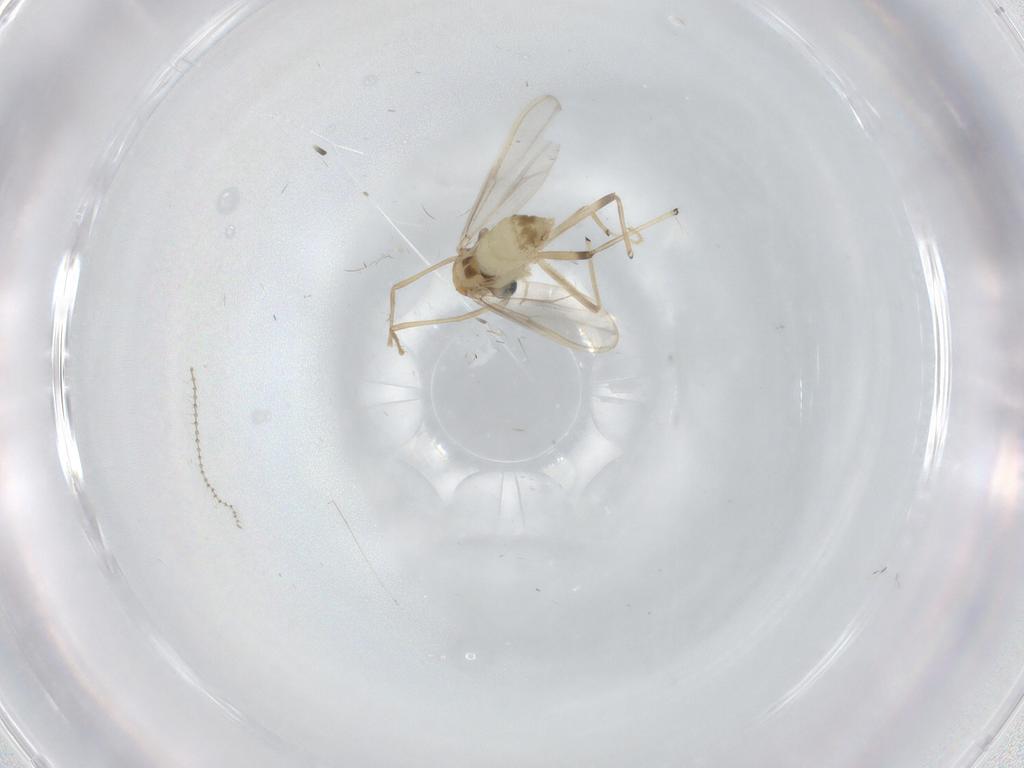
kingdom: Animalia
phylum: Arthropoda
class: Insecta
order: Diptera
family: Chironomidae
